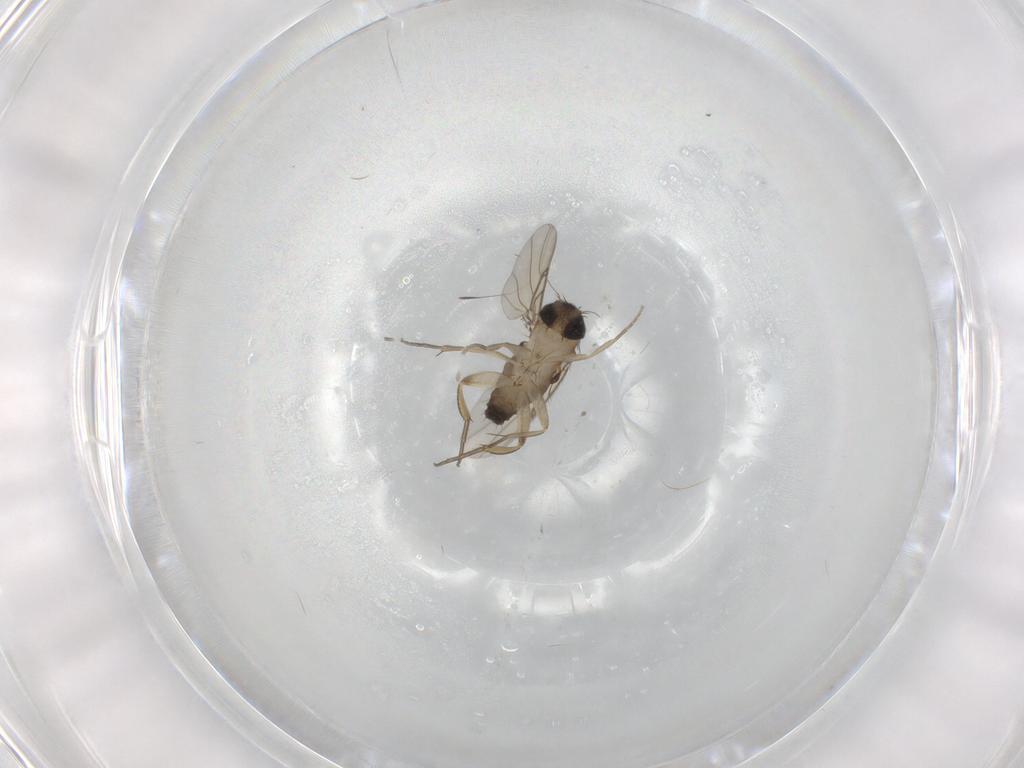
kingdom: Animalia
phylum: Arthropoda
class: Insecta
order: Diptera
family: Phoridae
